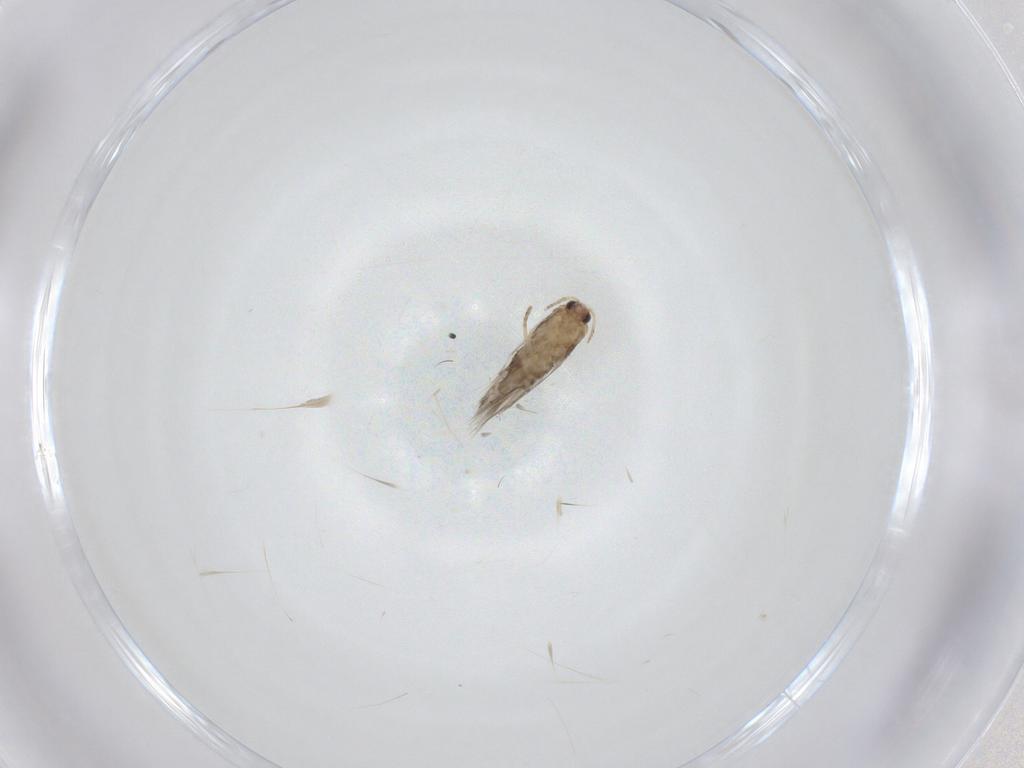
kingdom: Animalia
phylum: Arthropoda
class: Insecta
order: Lepidoptera
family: Nepticulidae
